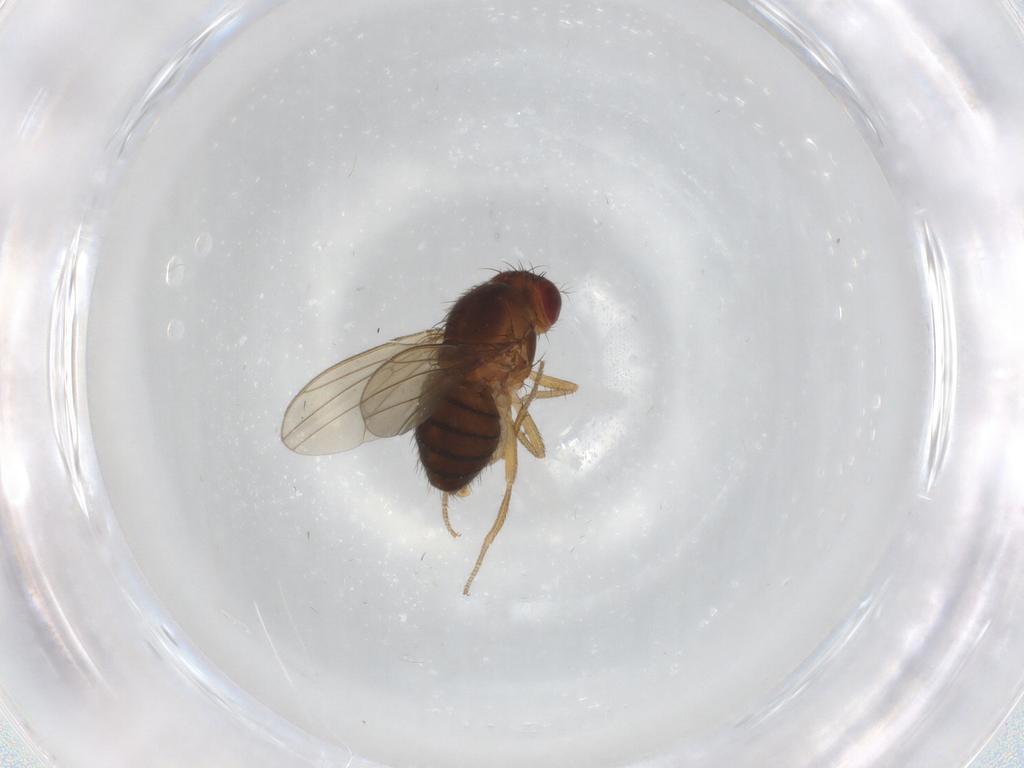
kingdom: Animalia
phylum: Arthropoda
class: Insecta
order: Diptera
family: Drosophilidae
